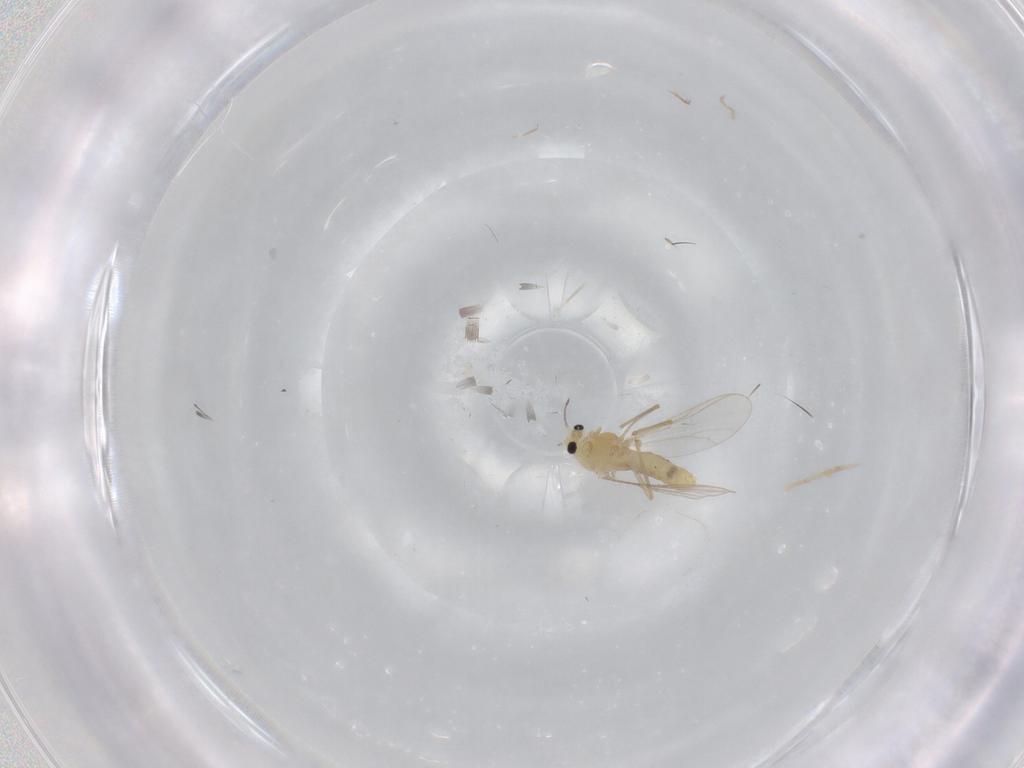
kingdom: Animalia
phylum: Arthropoda
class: Insecta
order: Diptera
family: Chironomidae
